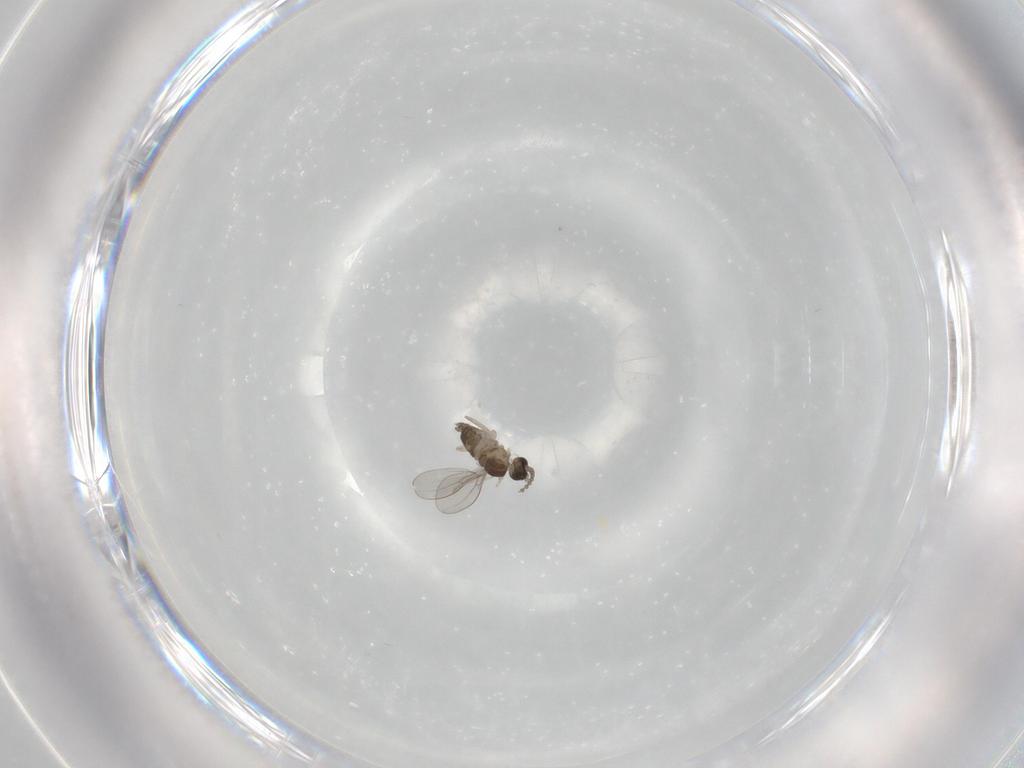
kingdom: Animalia
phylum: Arthropoda
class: Insecta
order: Diptera
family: Cecidomyiidae
